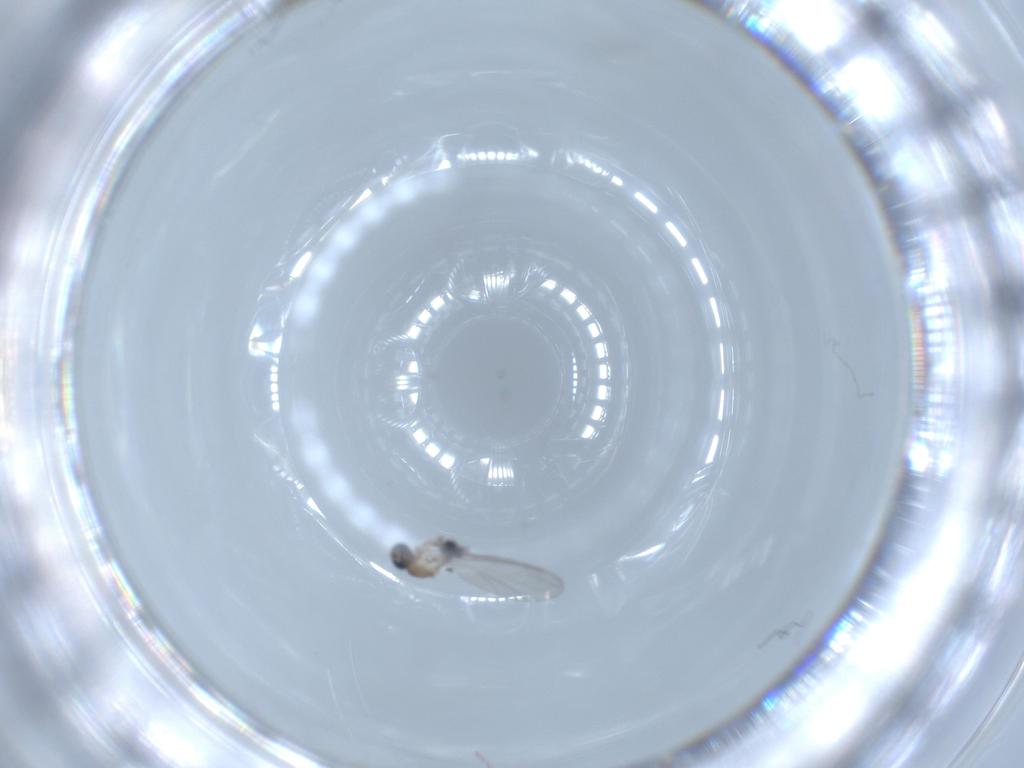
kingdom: Animalia
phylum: Arthropoda
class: Insecta
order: Diptera
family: Sciaridae
